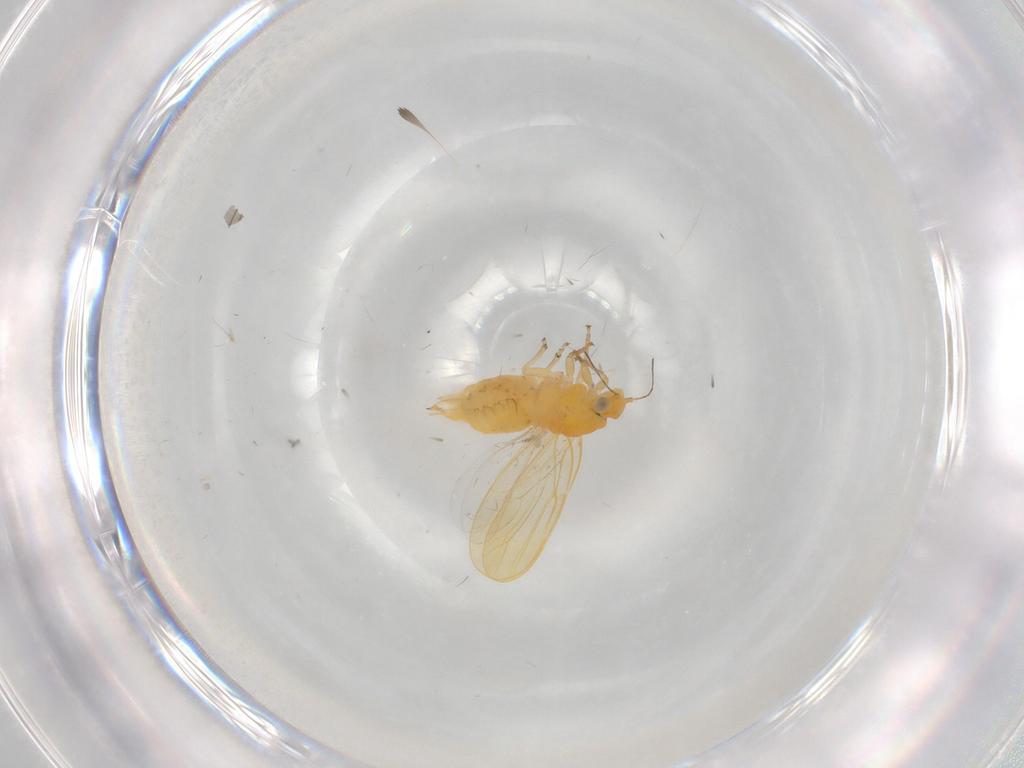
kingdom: Animalia
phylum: Arthropoda
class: Insecta
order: Hemiptera
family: Psyllidae
